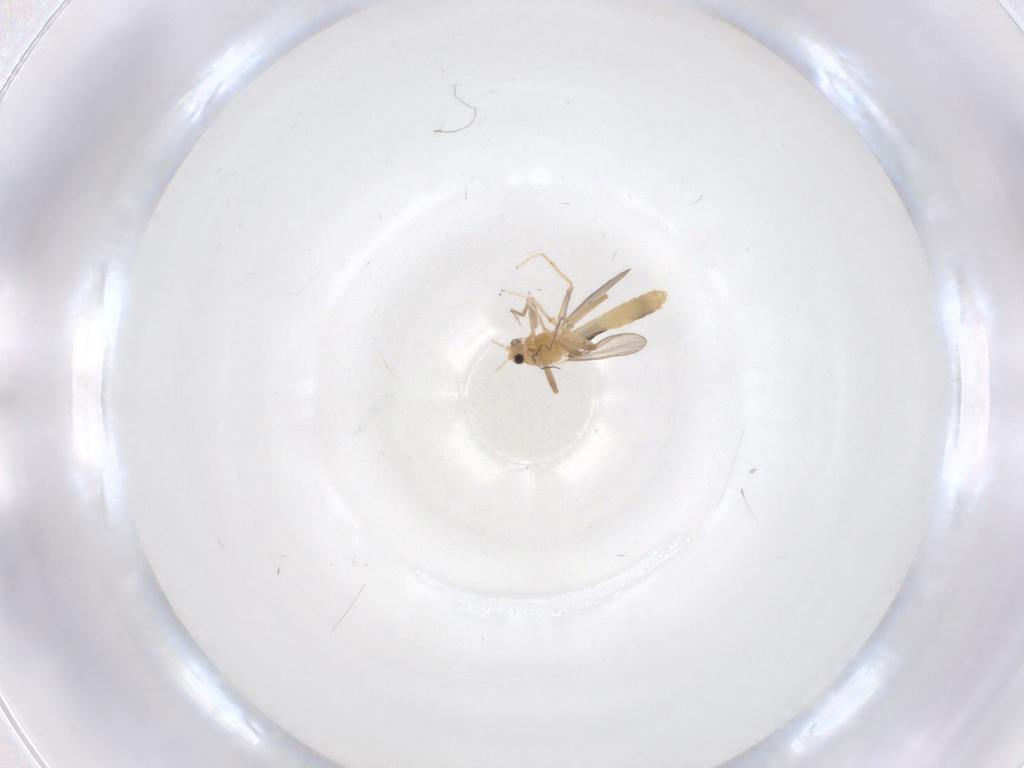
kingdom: Animalia
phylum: Arthropoda
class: Insecta
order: Diptera
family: Chironomidae
